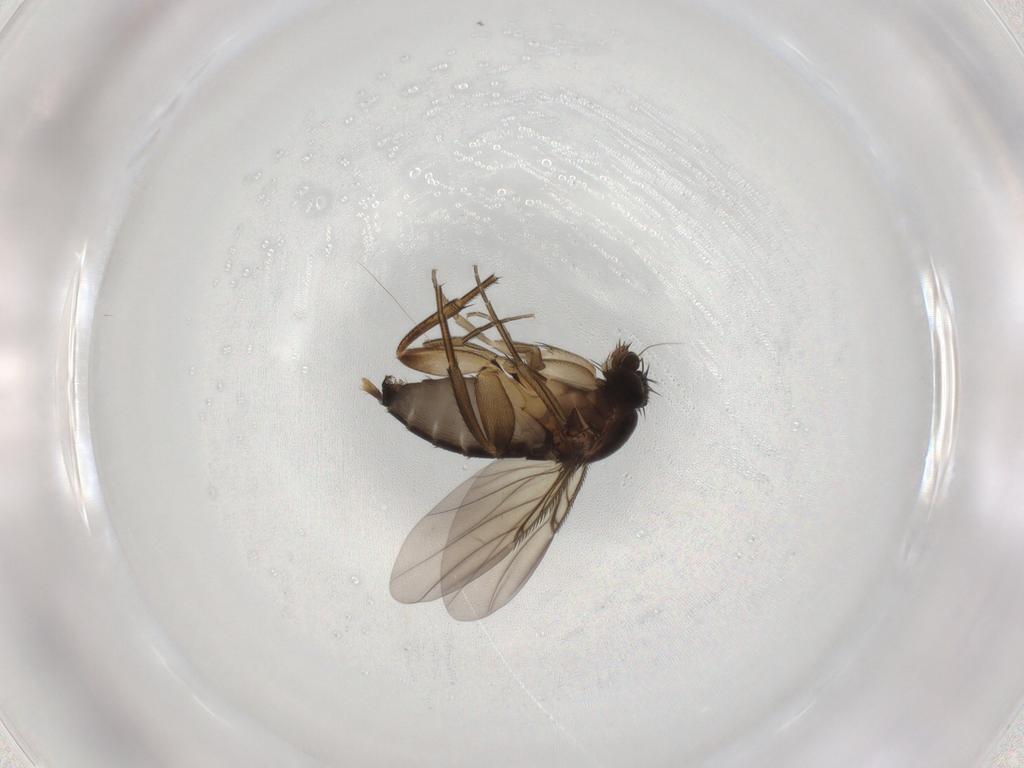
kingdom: Animalia
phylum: Arthropoda
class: Insecta
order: Diptera
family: Phoridae
